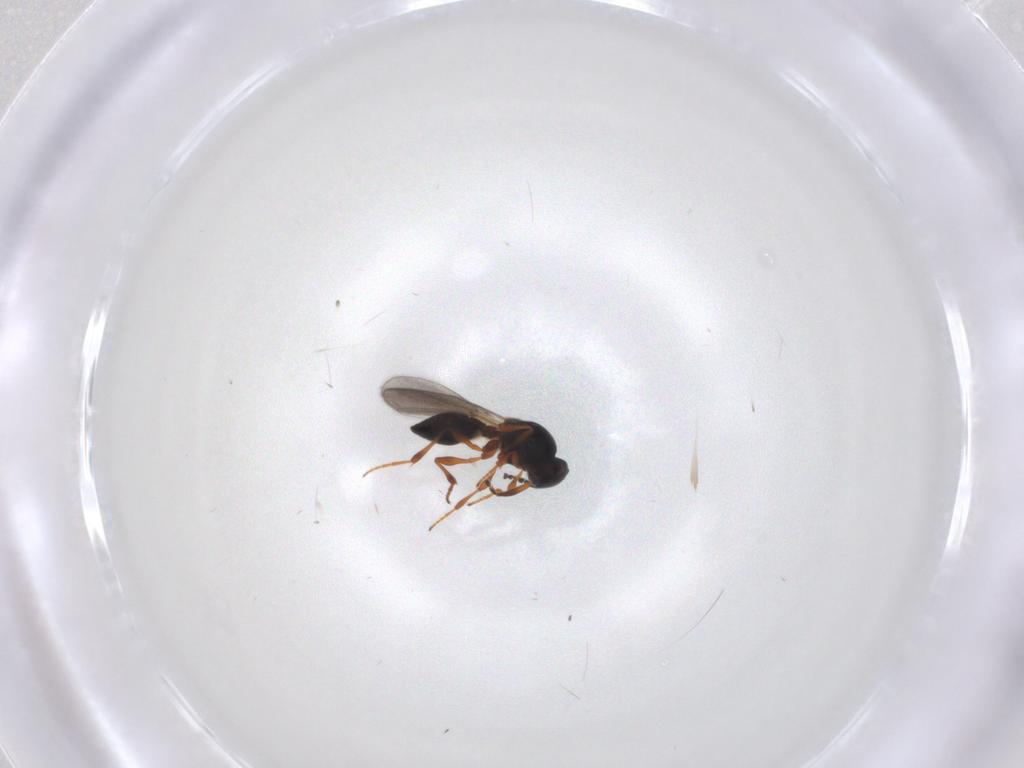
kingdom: Animalia
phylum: Arthropoda
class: Insecta
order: Hymenoptera
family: Platygastridae
